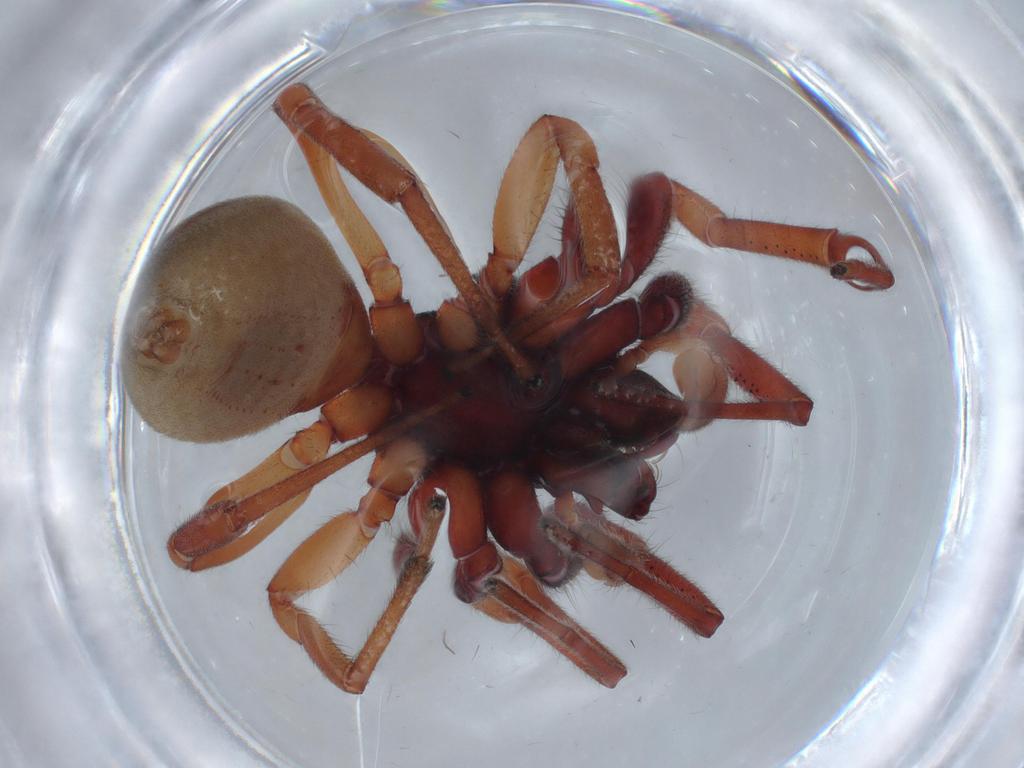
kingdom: Animalia
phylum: Arthropoda
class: Arachnida
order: Araneae
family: Trachelidae
